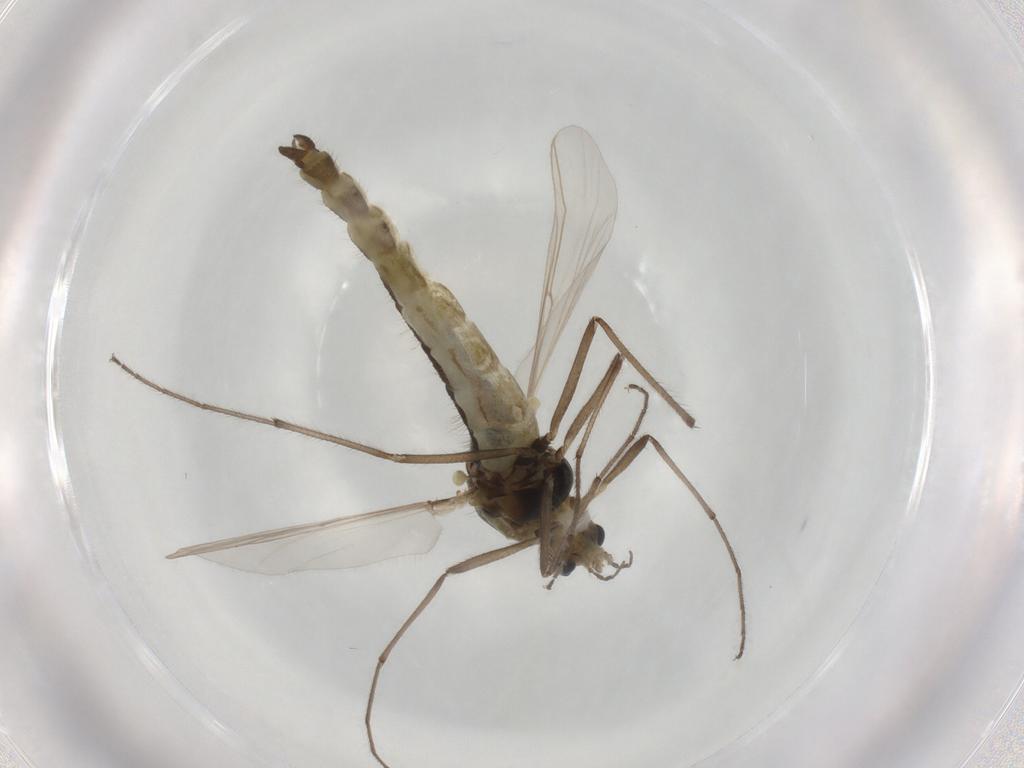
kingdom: Animalia
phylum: Arthropoda
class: Insecta
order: Diptera
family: Chironomidae
